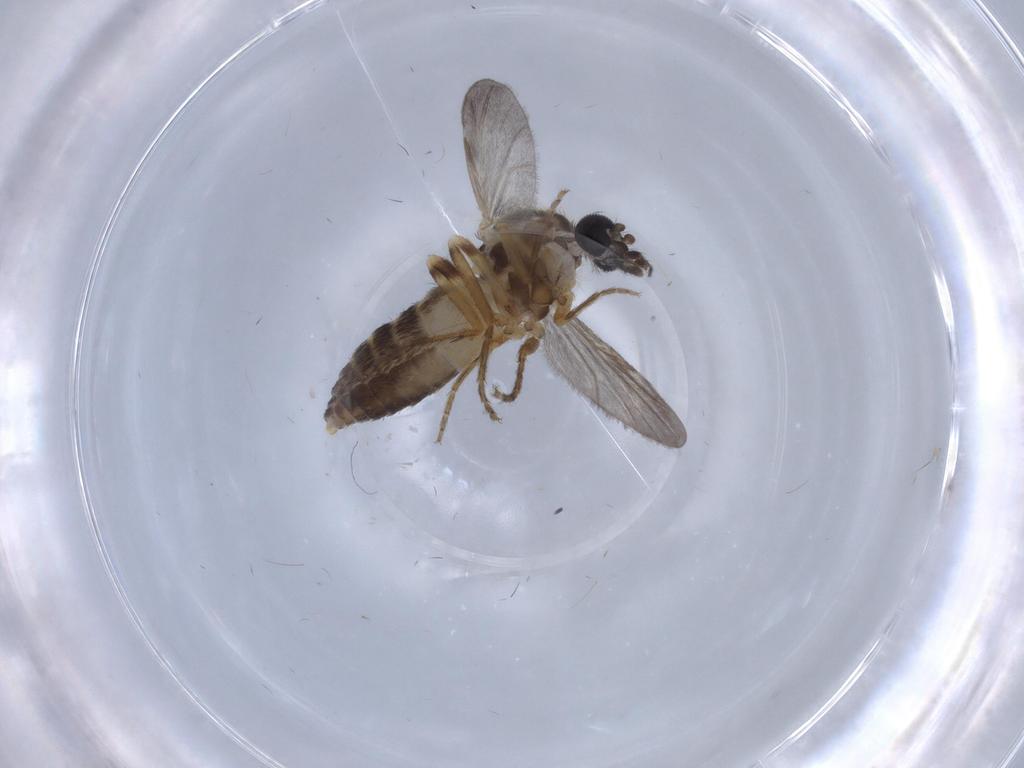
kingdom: Animalia
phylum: Arthropoda
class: Insecta
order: Diptera
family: Ceratopogonidae
